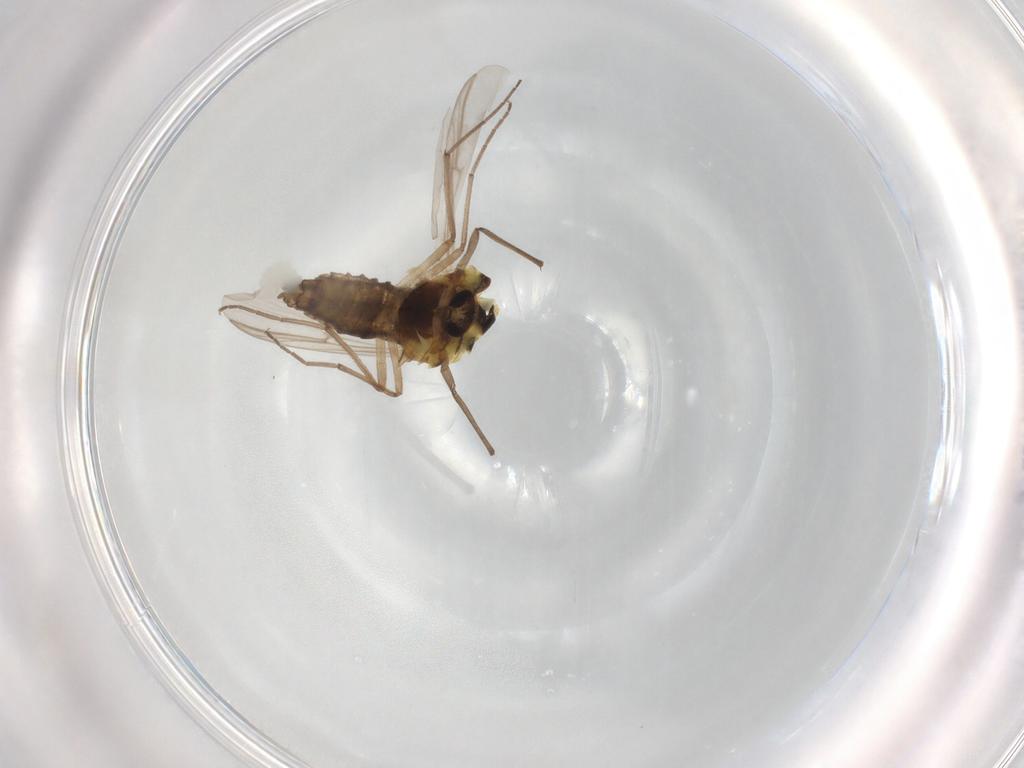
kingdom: Animalia
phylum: Arthropoda
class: Insecta
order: Diptera
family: Chironomidae
